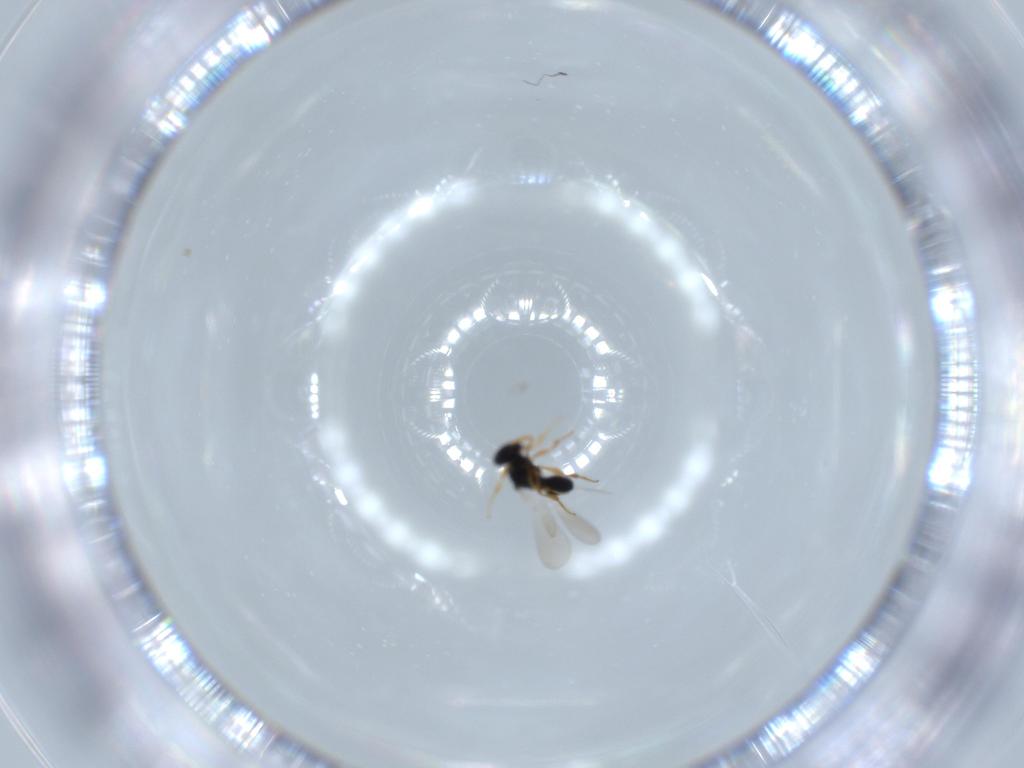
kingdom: Animalia
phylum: Arthropoda
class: Insecta
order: Hymenoptera
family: Platygastridae
